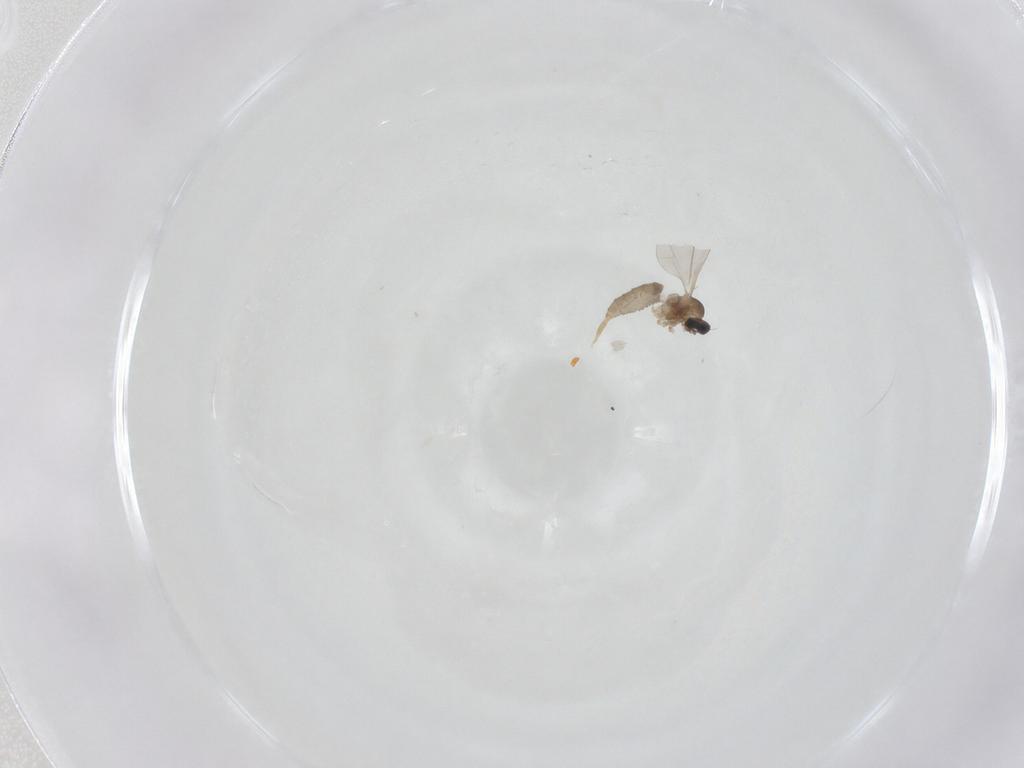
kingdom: Animalia
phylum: Arthropoda
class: Insecta
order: Diptera
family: Cecidomyiidae
